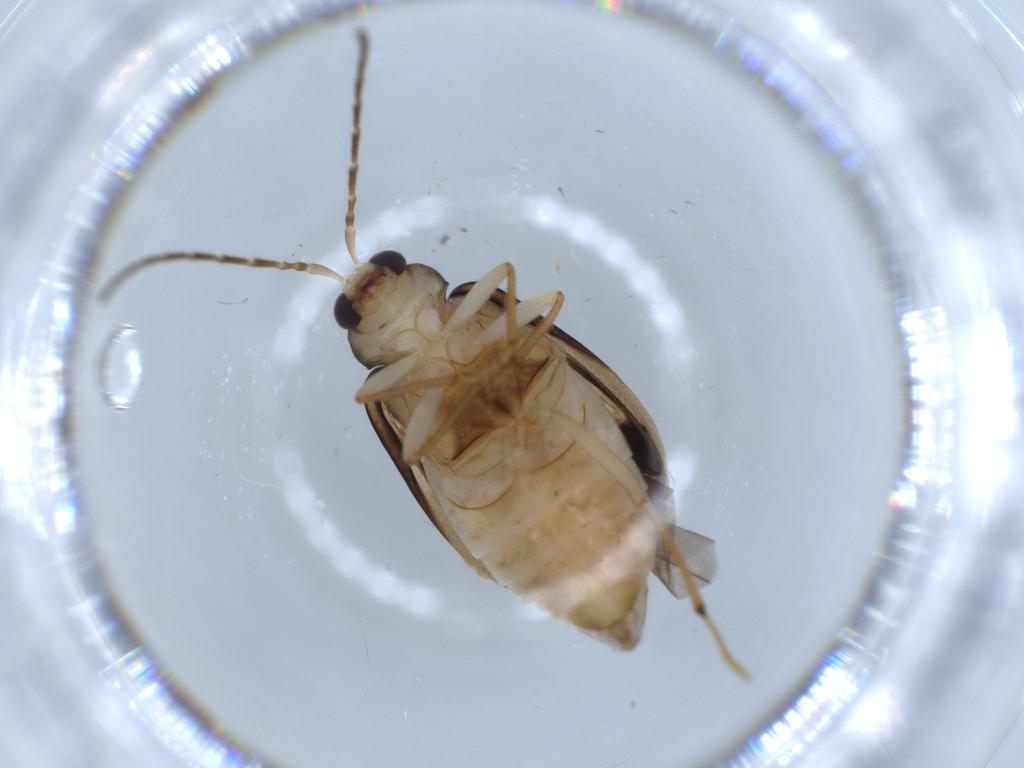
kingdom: Animalia
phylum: Arthropoda
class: Insecta
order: Coleoptera
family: Chrysomelidae
